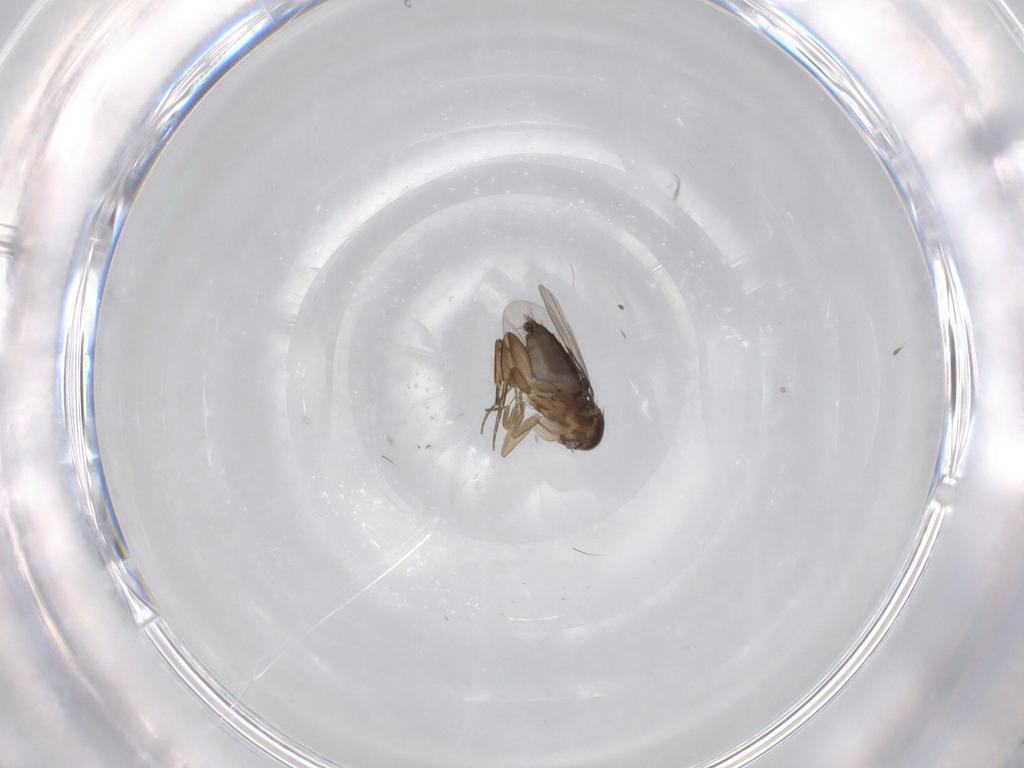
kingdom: Animalia
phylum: Arthropoda
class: Insecta
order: Diptera
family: Phoridae
